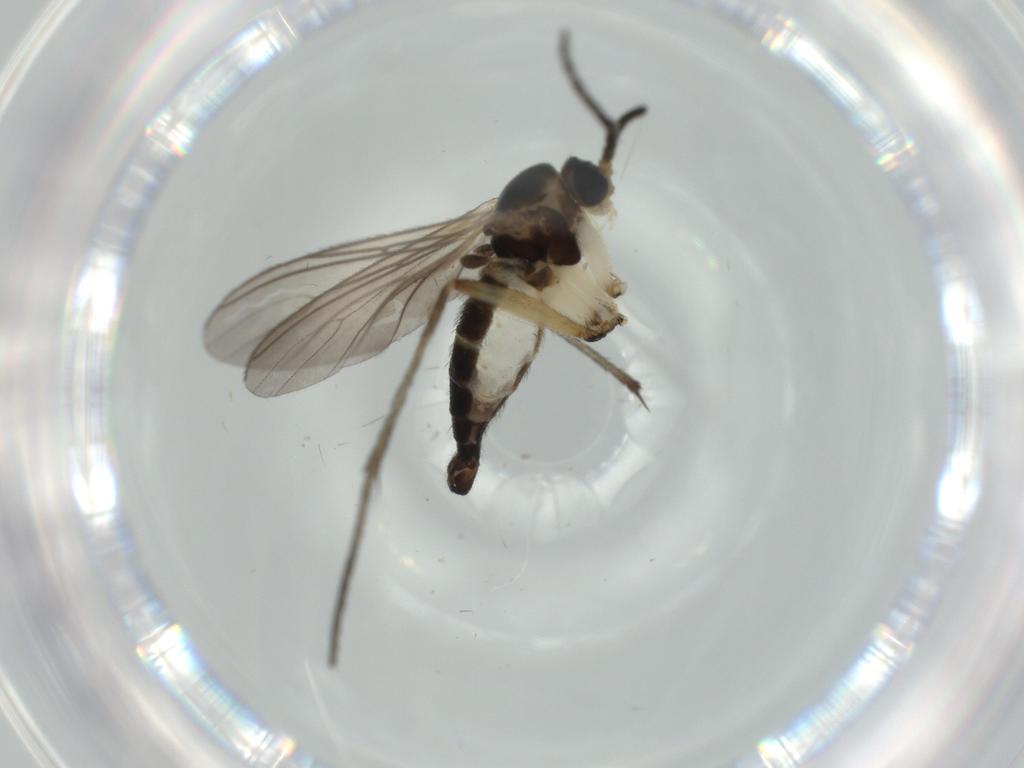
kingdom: Animalia
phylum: Arthropoda
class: Insecta
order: Diptera
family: Sciaridae
